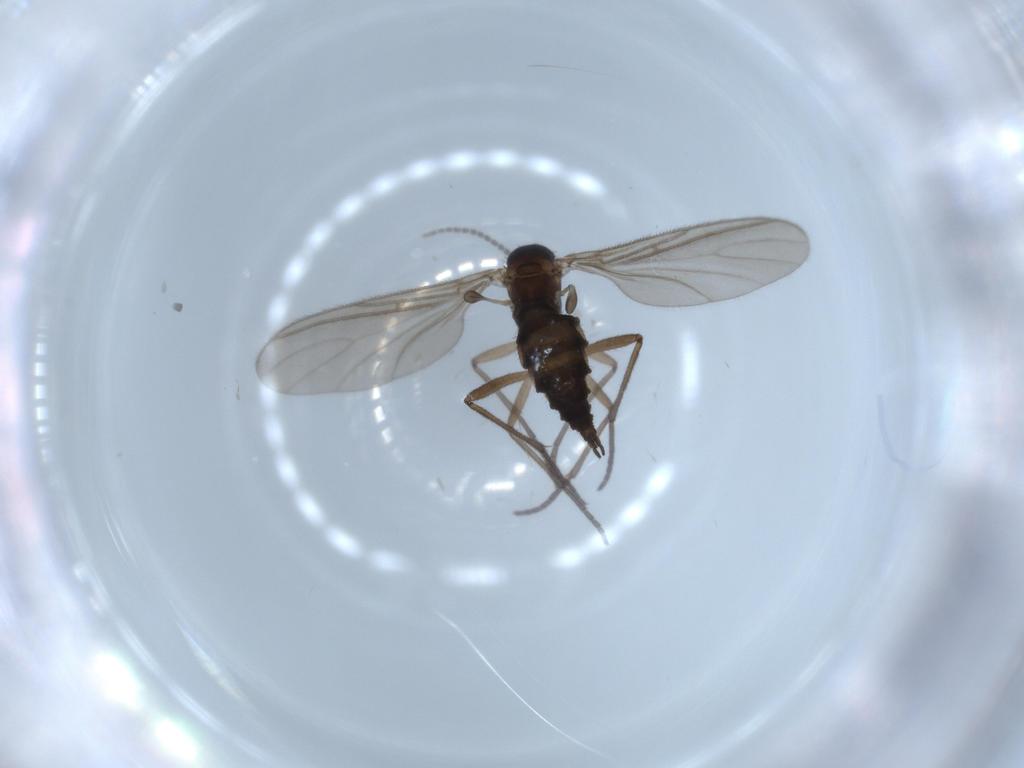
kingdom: Animalia
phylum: Arthropoda
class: Insecta
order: Diptera
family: Sciaridae
